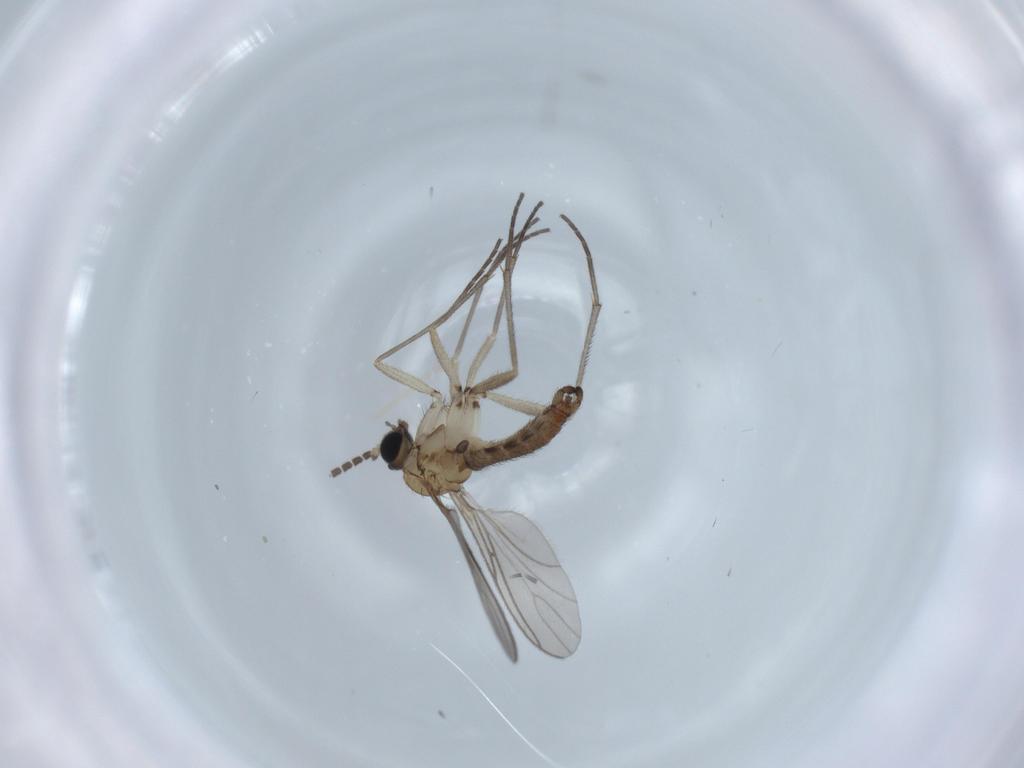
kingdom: Animalia
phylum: Arthropoda
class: Insecta
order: Diptera
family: Sciaridae
